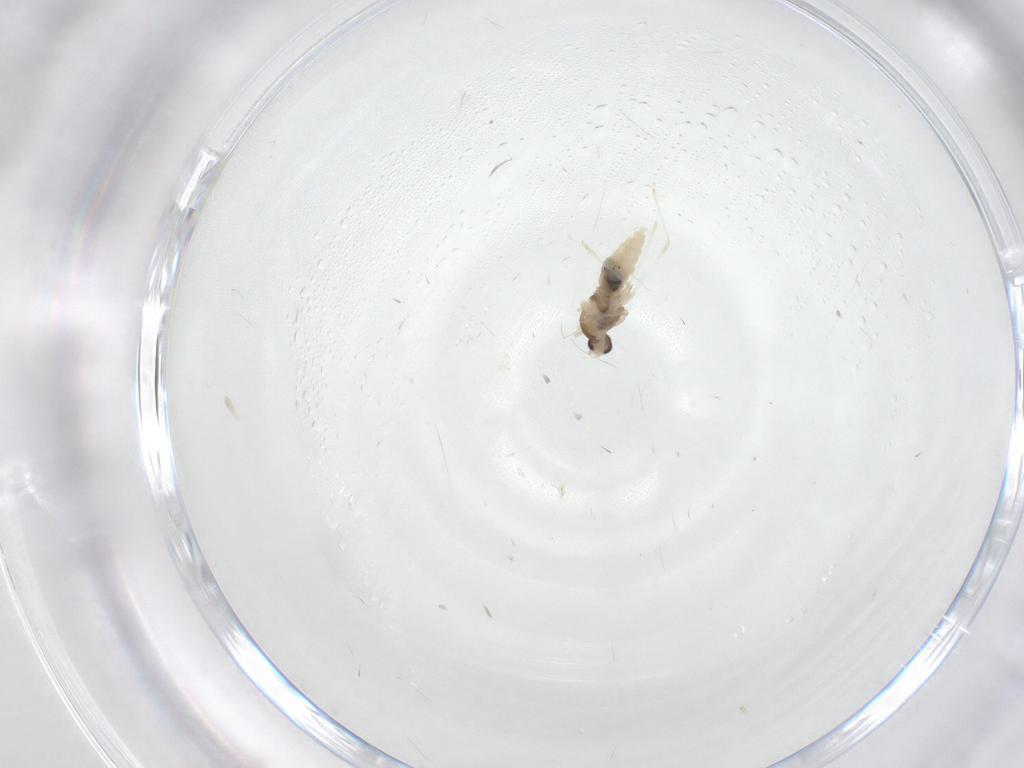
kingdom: Animalia
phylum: Arthropoda
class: Insecta
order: Diptera
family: Cecidomyiidae
